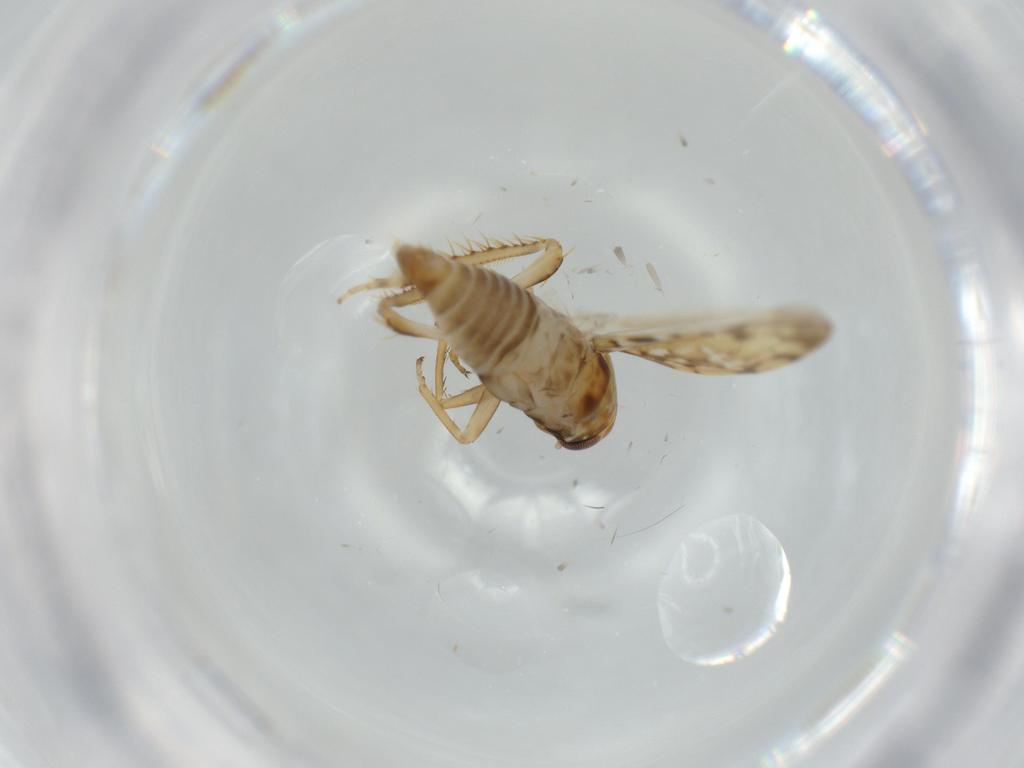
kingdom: Animalia
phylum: Arthropoda
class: Insecta
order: Hemiptera
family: Cicadellidae
